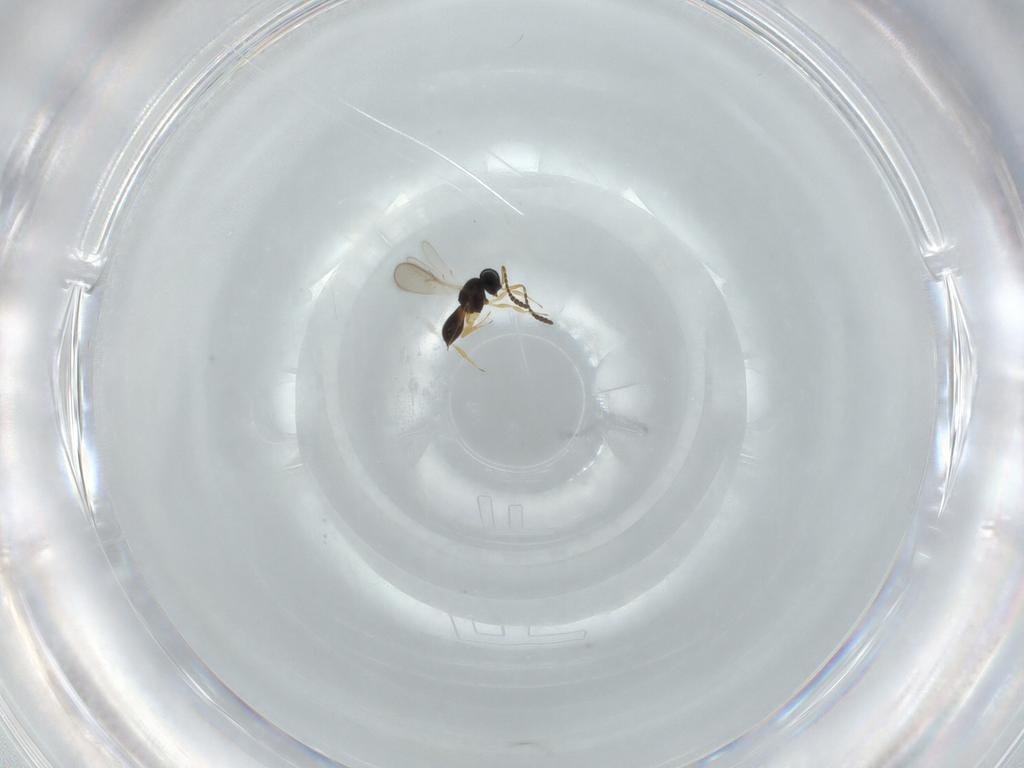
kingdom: Animalia
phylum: Arthropoda
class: Insecta
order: Hymenoptera
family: Scelionidae
